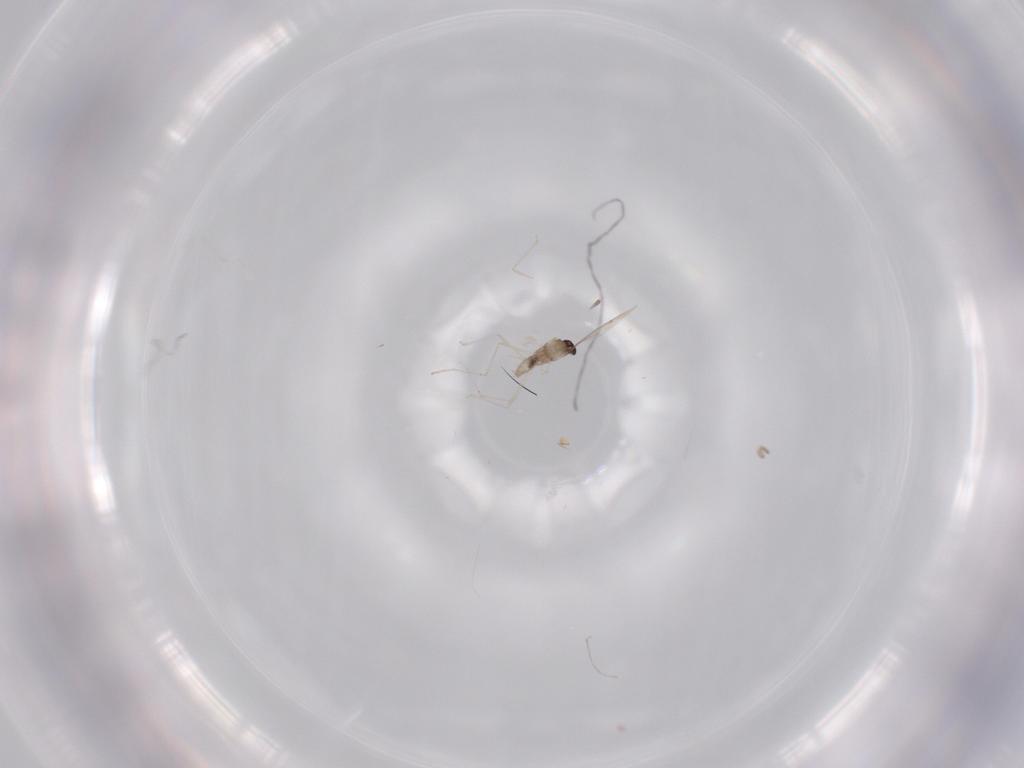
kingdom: Animalia
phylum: Arthropoda
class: Insecta
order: Diptera
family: Cecidomyiidae
